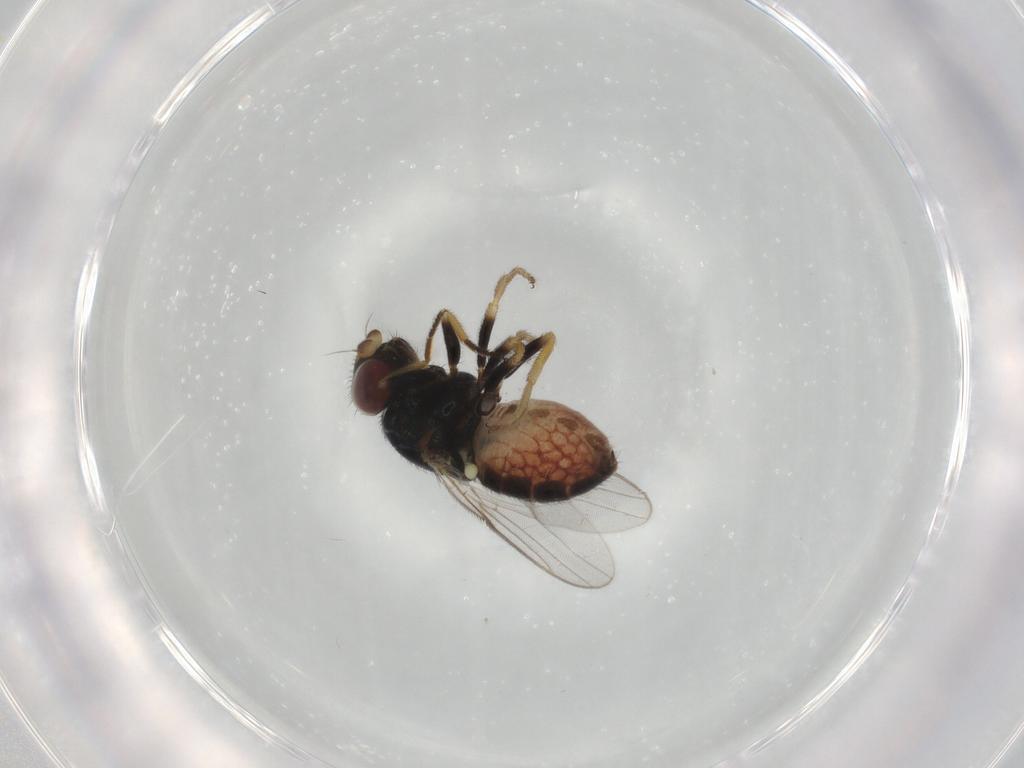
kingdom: Animalia
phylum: Arthropoda
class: Insecta
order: Diptera
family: Chloropidae
